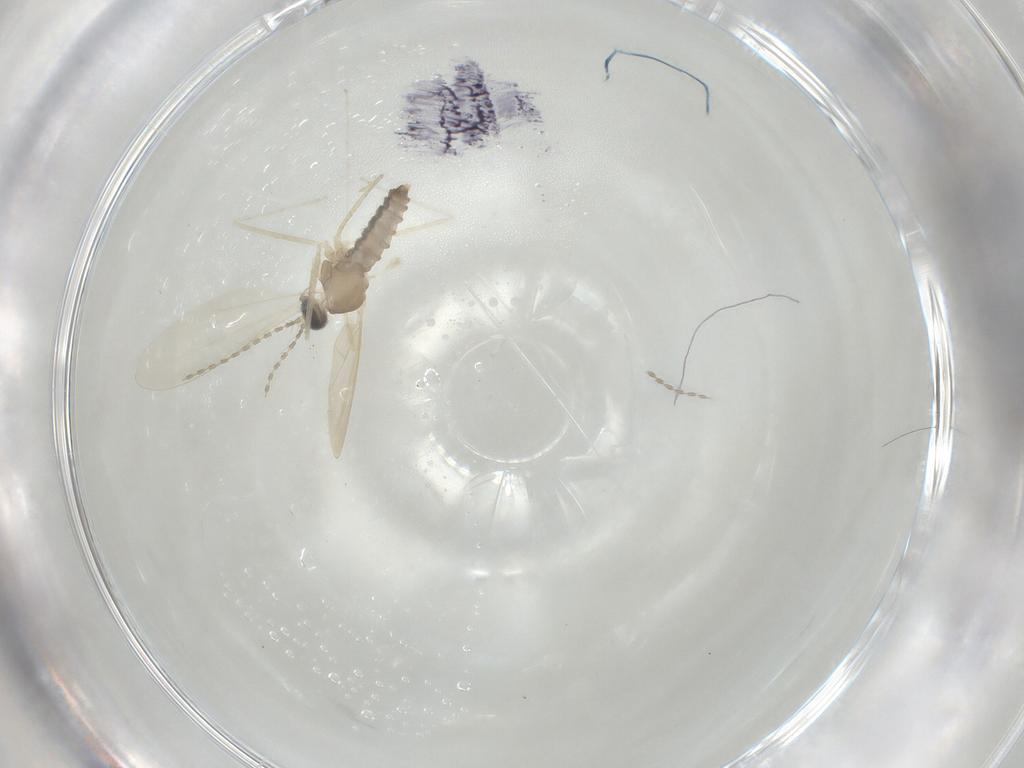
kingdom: Animalia
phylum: Arthropoda
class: Insecta
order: Diptera
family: Cecidomyiidae
